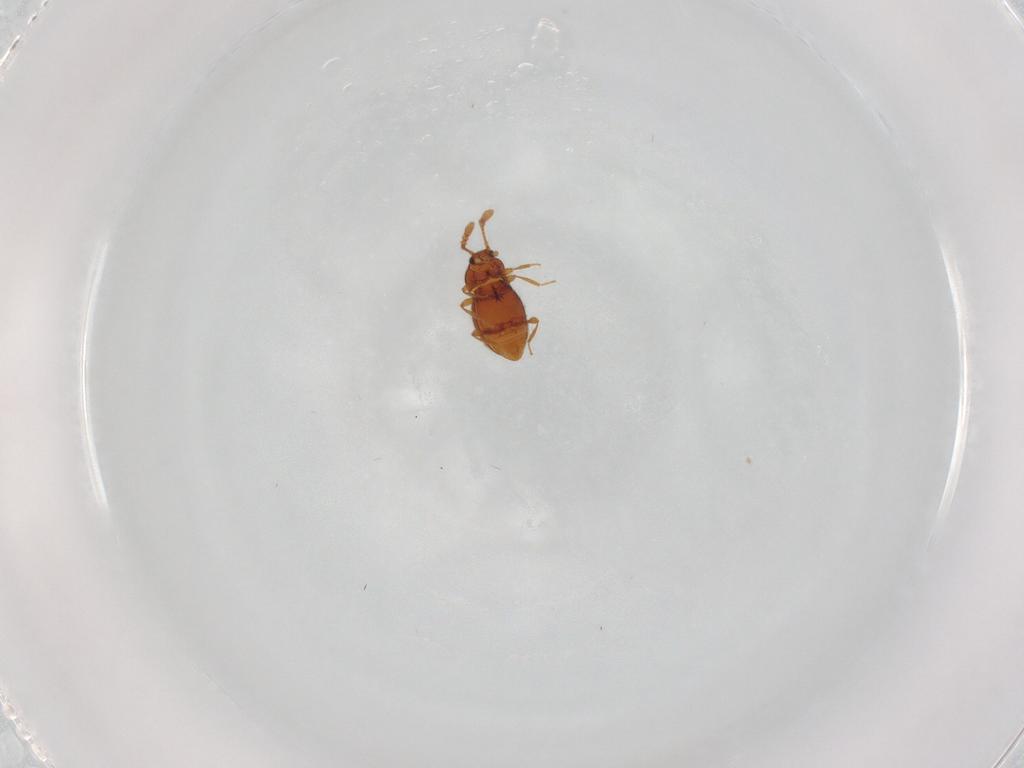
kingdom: Animalia
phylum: Arthropoda
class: Insecta
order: Coleoptera
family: Staphylinidae
